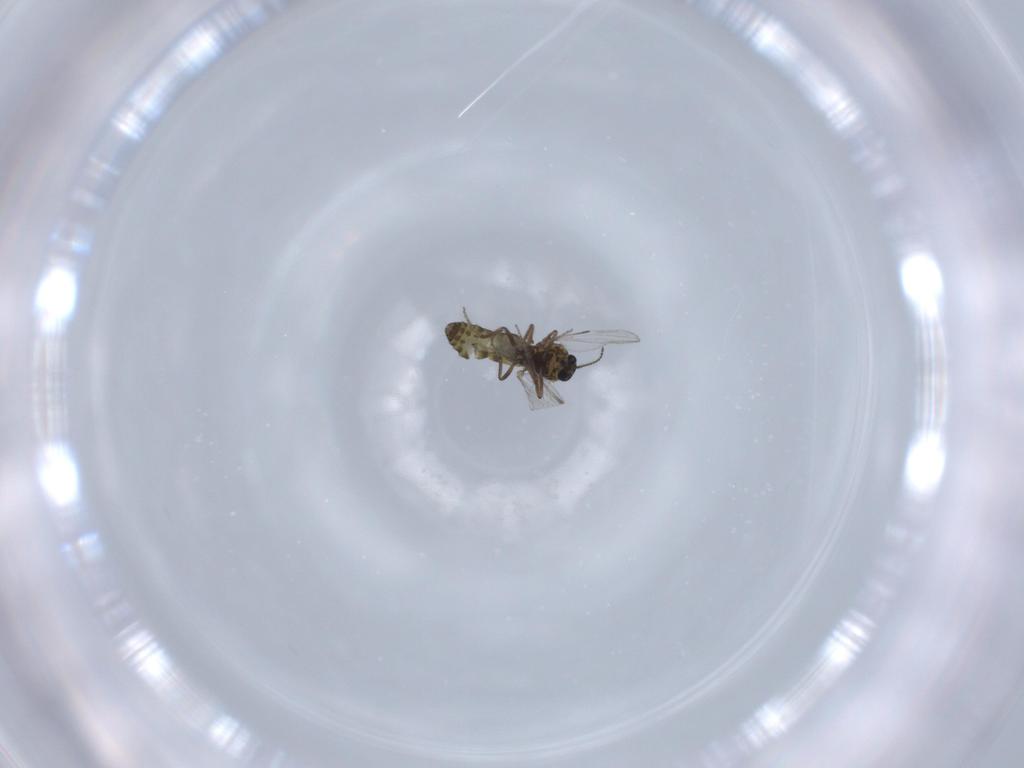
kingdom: Animalia
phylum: Arthropoda
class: Insecta
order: Diptera
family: Ceratopogonidae
